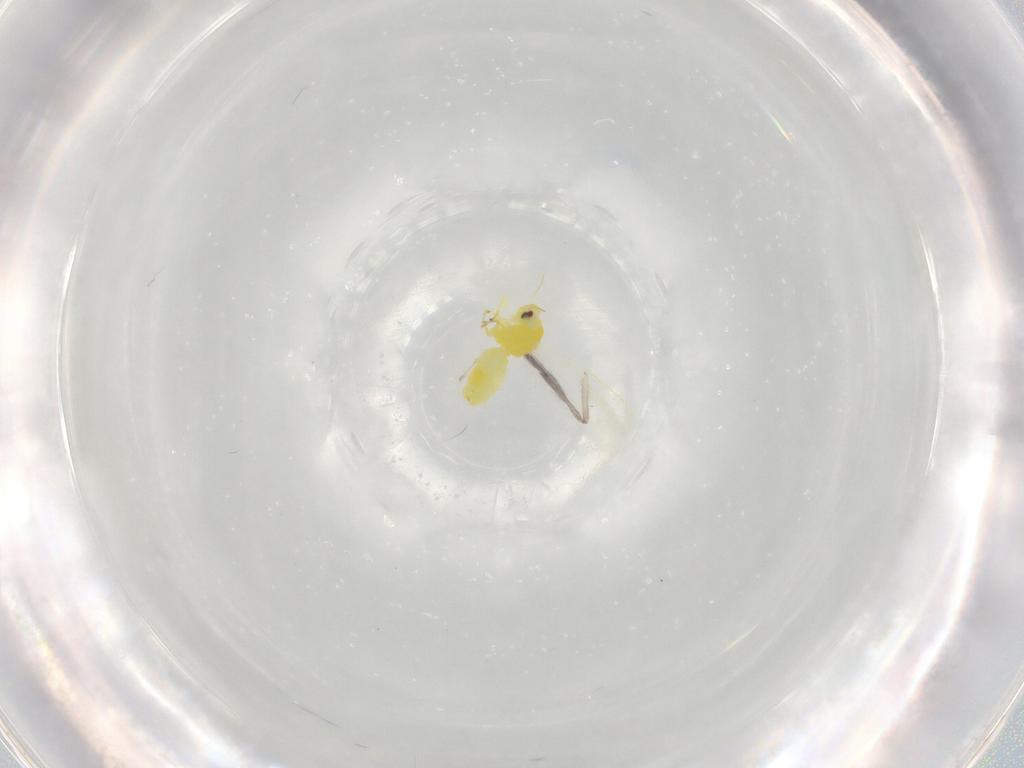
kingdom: Animalia
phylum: Arthropoda
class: Insecta
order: Hemiptera
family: Aleyrodidae
